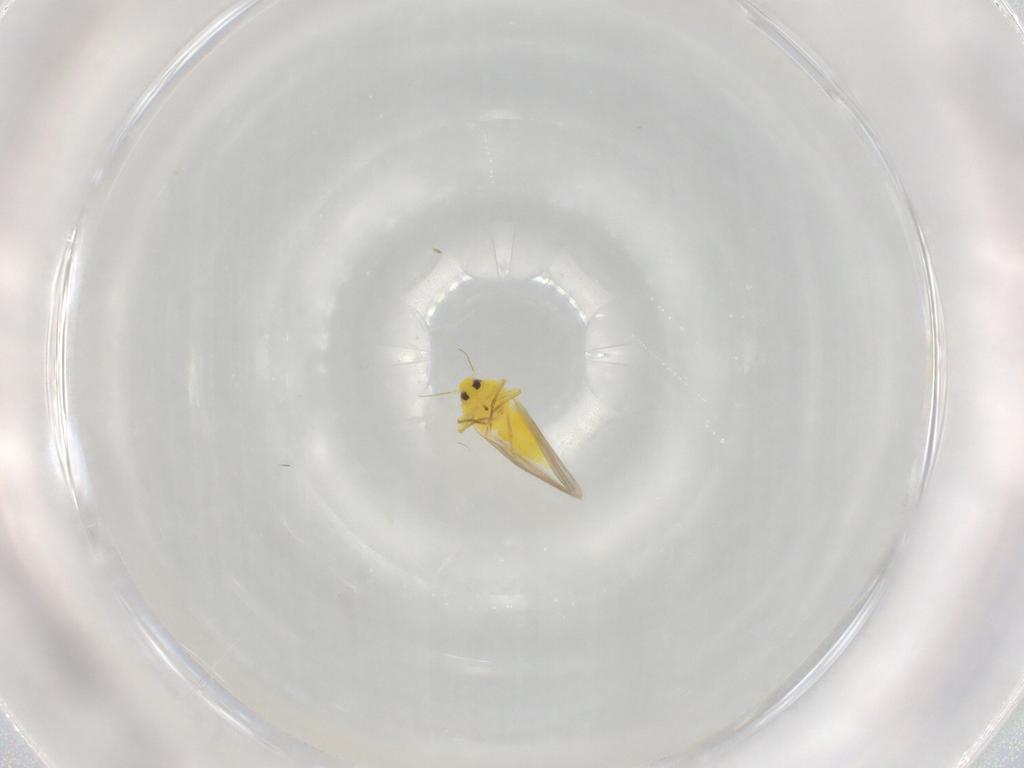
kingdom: Animalia
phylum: Arthropoda
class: Insecta
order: Hemiptera
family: Aleyrodidae
